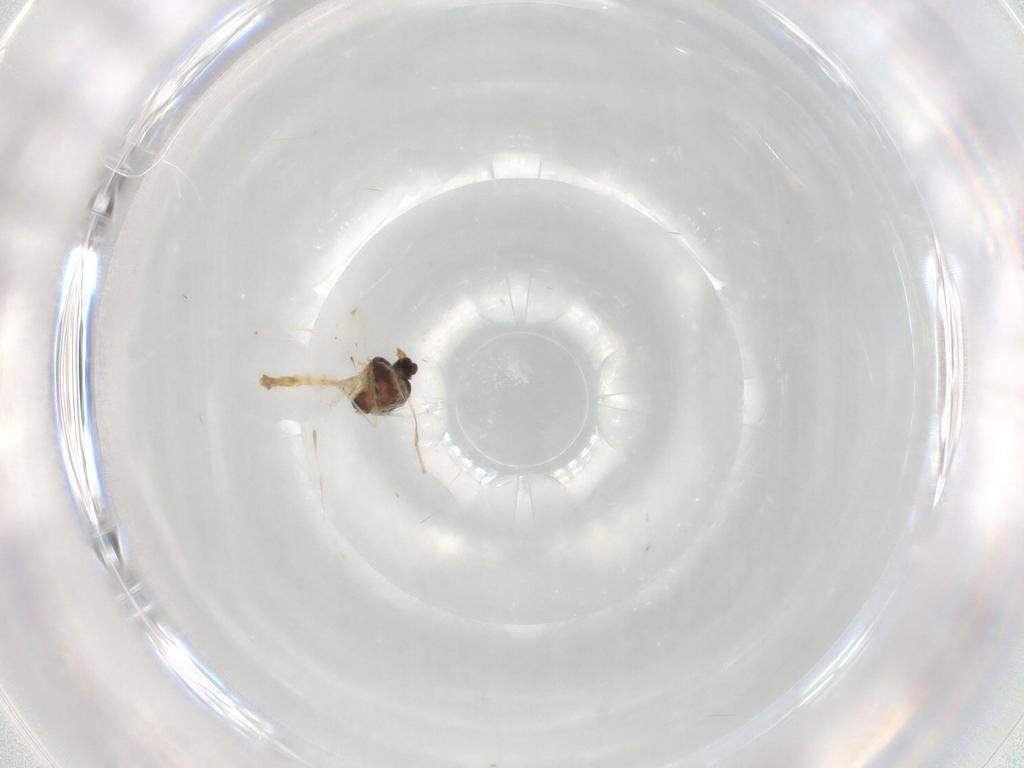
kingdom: Animalia
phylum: Arthropoda
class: Insecta
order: Diptera
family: Chironomidae
